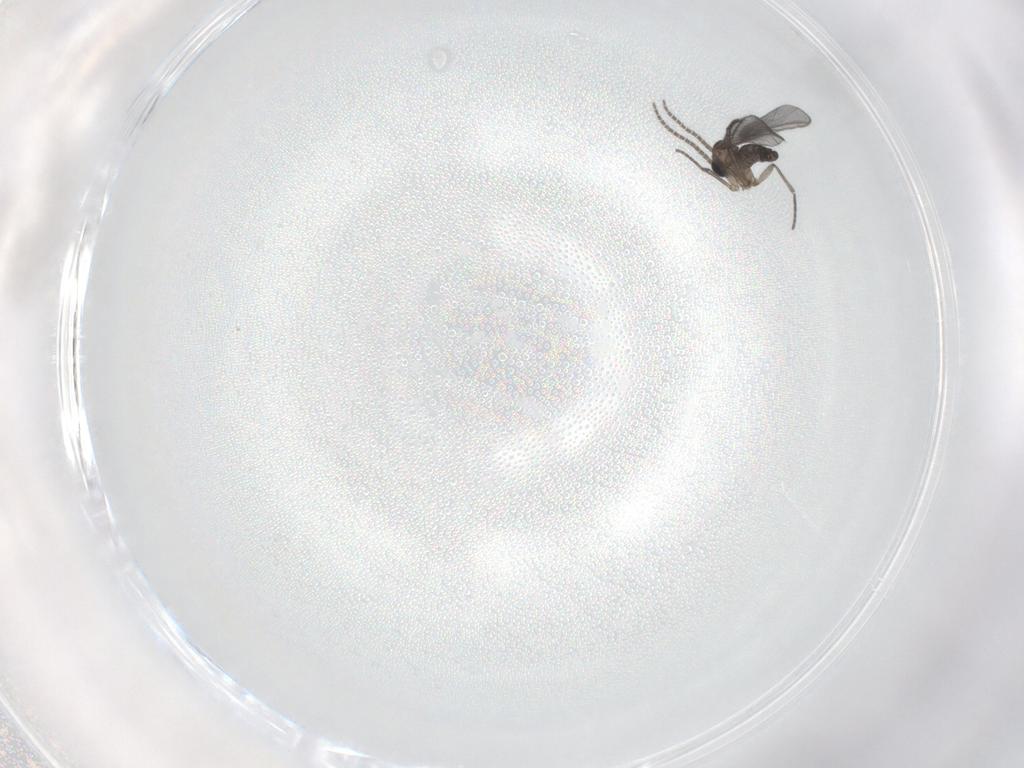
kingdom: Animalia
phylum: Arthropoda
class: Insecta
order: Diptera
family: Sciaridae
